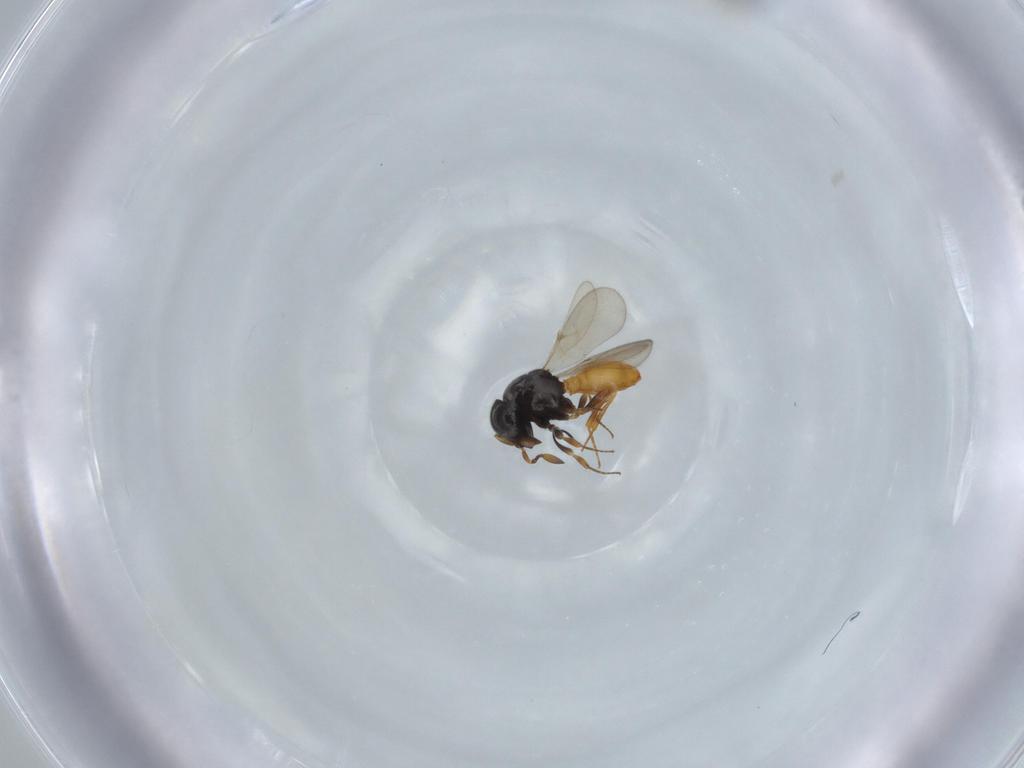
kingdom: Animalia
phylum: Arthropoda
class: Insecta
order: Hymenoptera
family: Scelionidae
